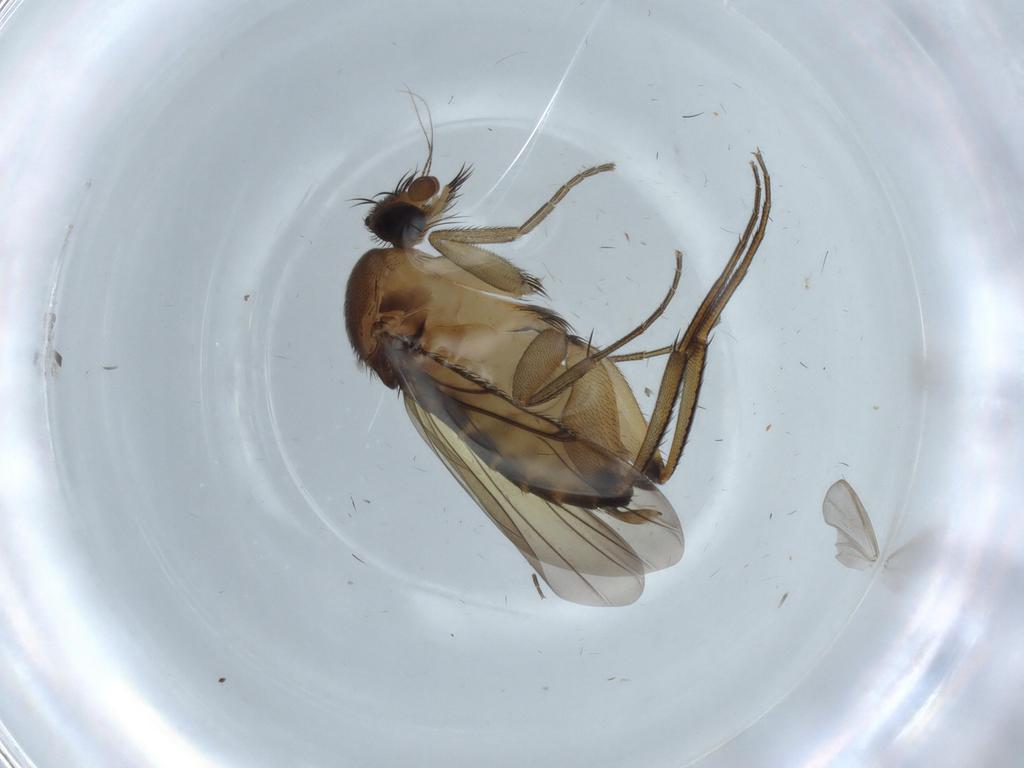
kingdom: Animalia
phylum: Arthropoda
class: Insecta
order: Diptera
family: Phoridae
